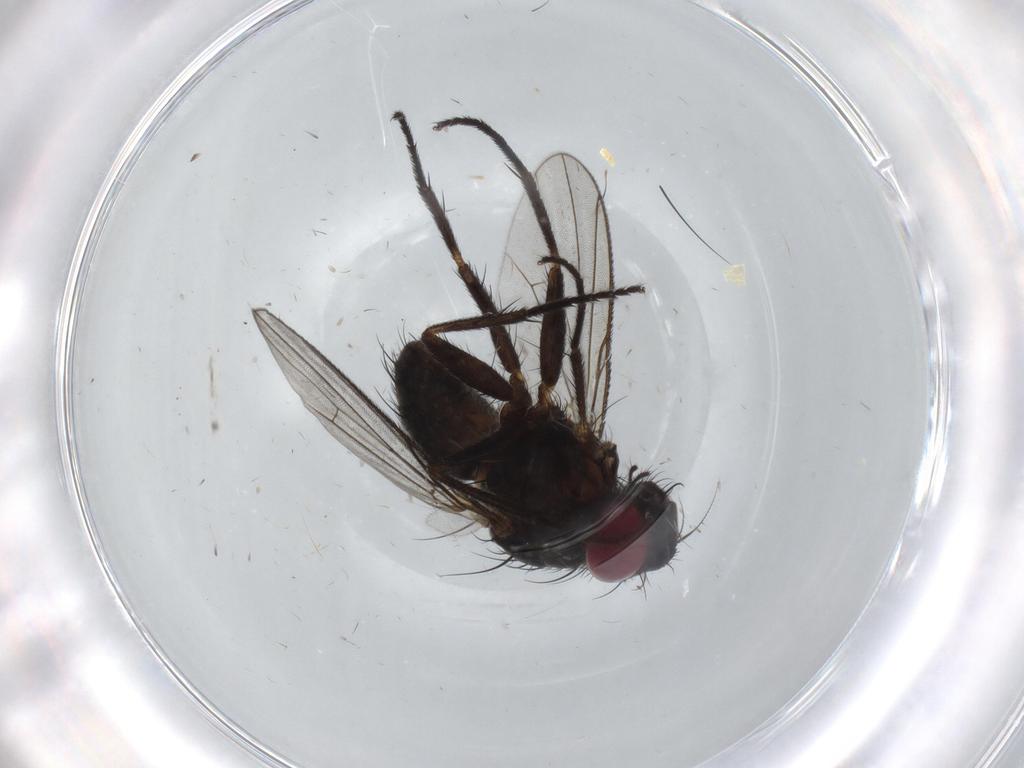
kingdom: Animalia
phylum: Arthropoda
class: Insecta
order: Diptera
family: Muscidae
